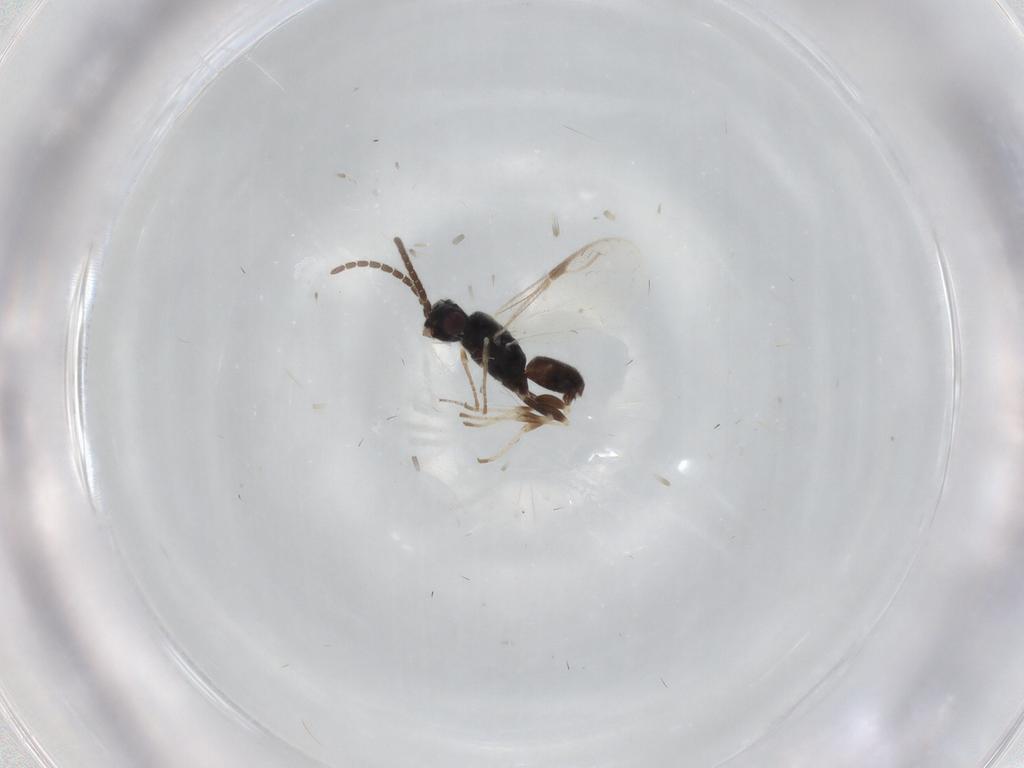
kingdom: Animalia
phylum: Arthropoda
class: Insecta
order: Hymenoptera
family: Dryinidae
